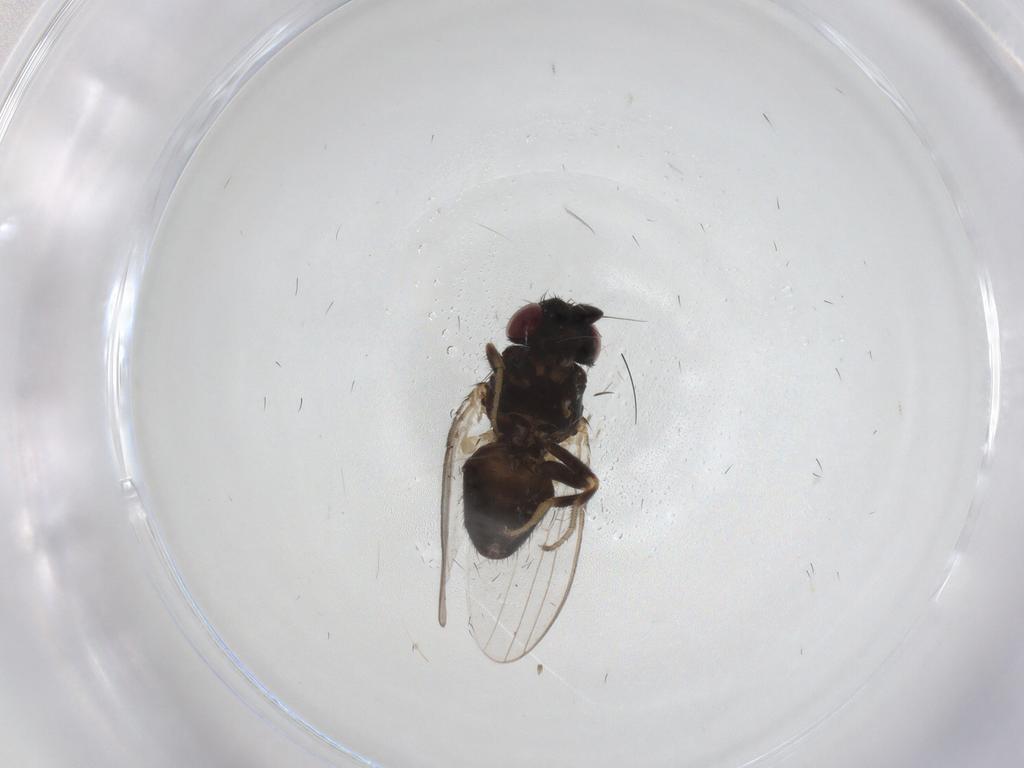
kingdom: Animalia
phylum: Arthropoda
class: Insecta
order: Diptera
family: Milichiidae
